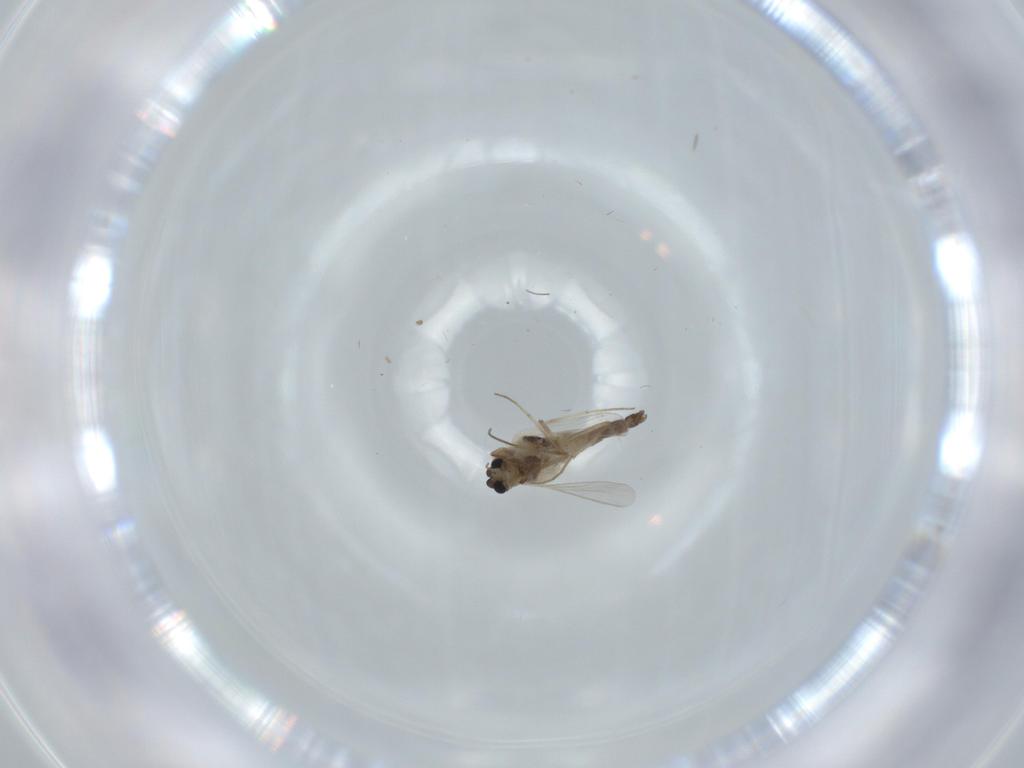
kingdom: Animalia
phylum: Arthropoda
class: Insecta
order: Diptera
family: Chironomidae
